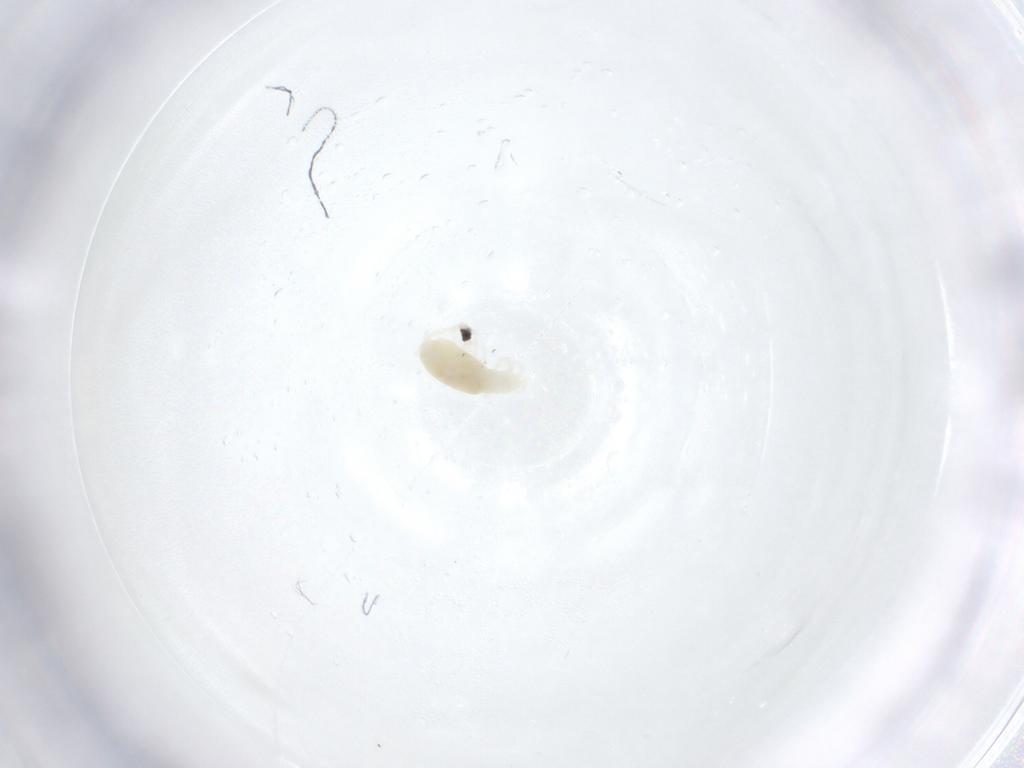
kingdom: Animalia
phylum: Arthropoda
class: Arachnida
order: Trombidiformes
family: Rhagidiidae
